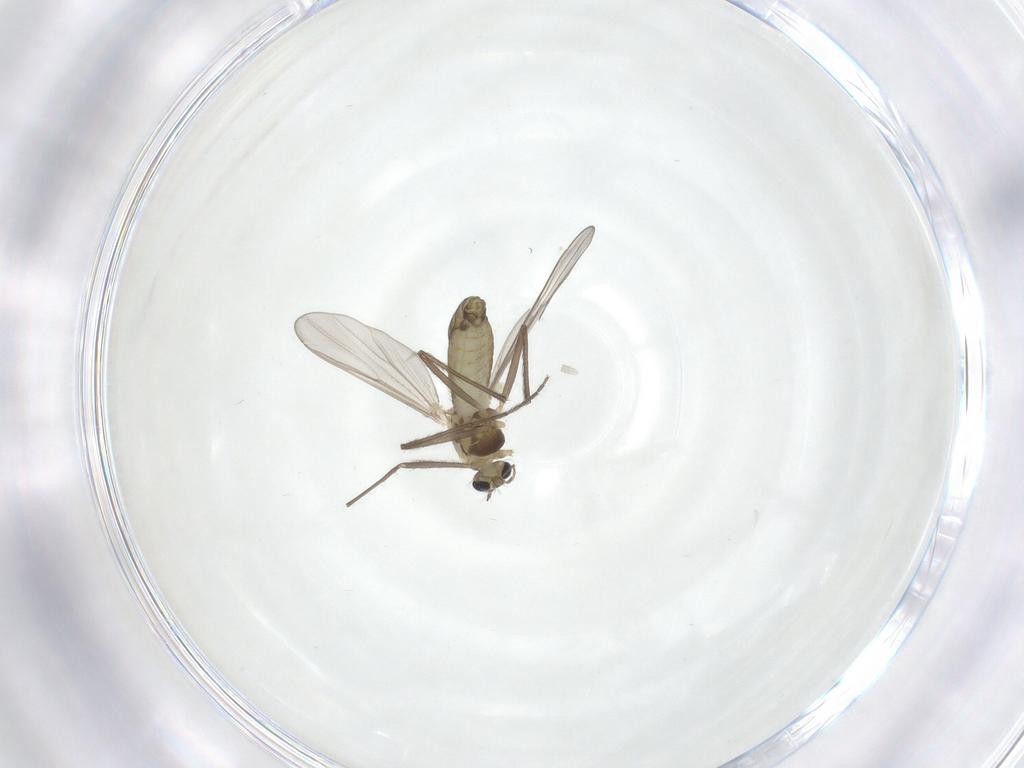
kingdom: Animalia
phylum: Arthropoda
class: Insecta
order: Diptera
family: Chironomidae
